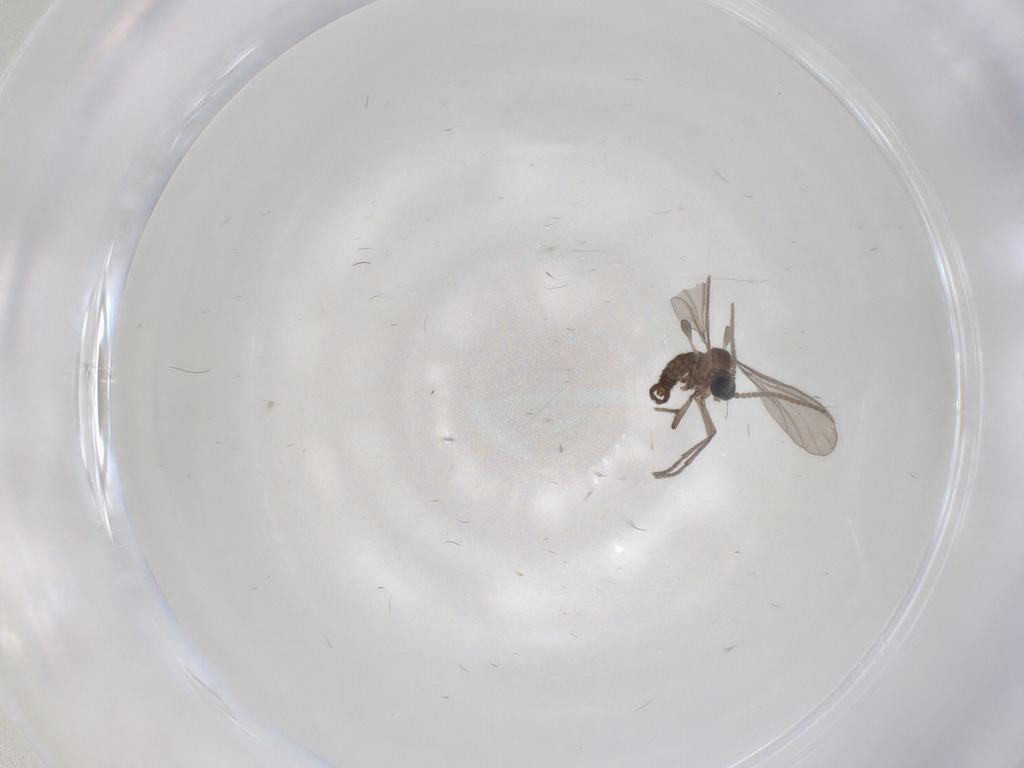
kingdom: Animalia
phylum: Arthropoda
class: Insecta
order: Diptera
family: Sciaridae
